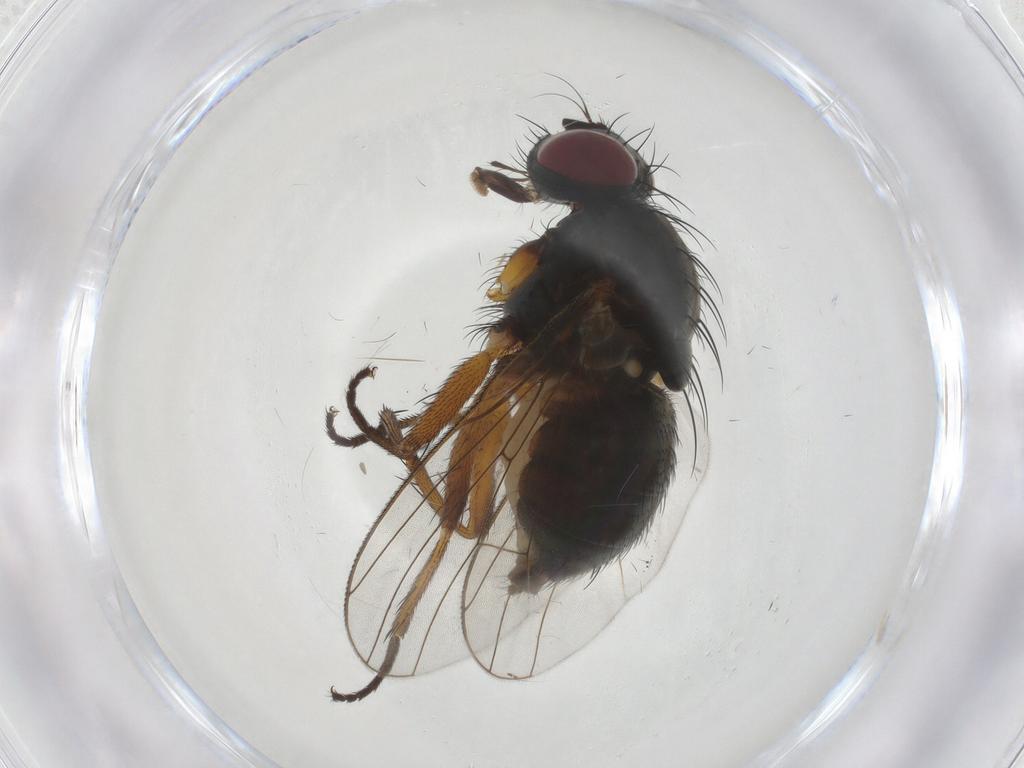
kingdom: Animalia
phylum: Arthropoda
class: Insecta
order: Diptera
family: Muscidae
